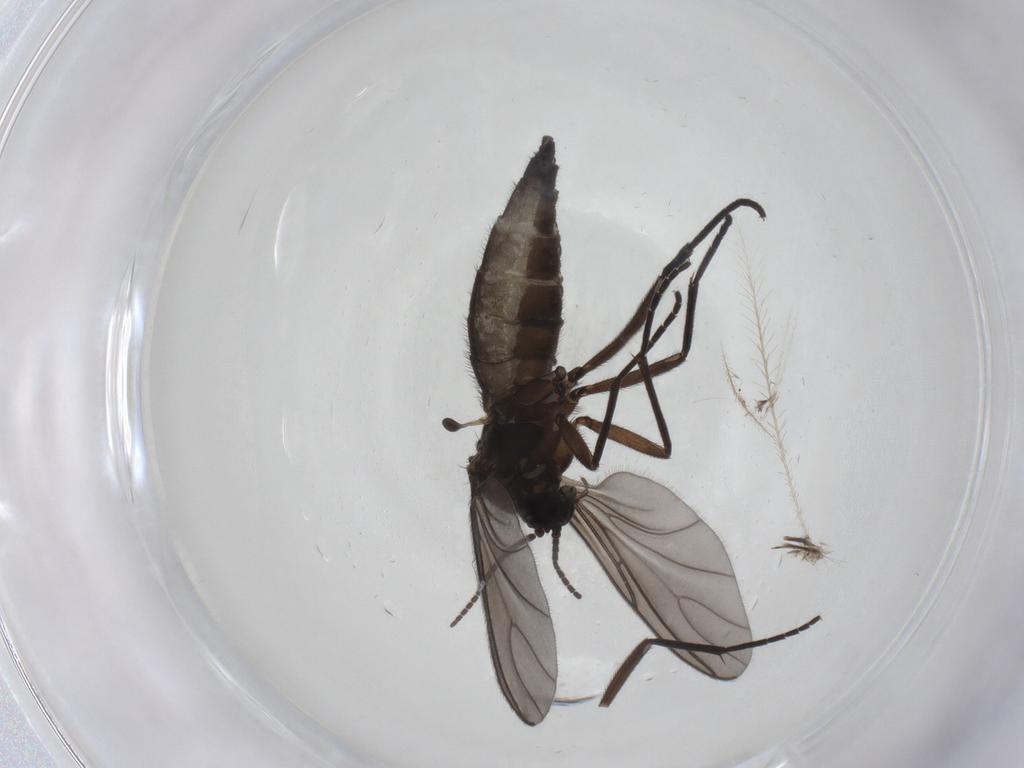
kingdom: Animalia
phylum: Arthropoda
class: Insecta
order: Diptera
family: Sciaridae
